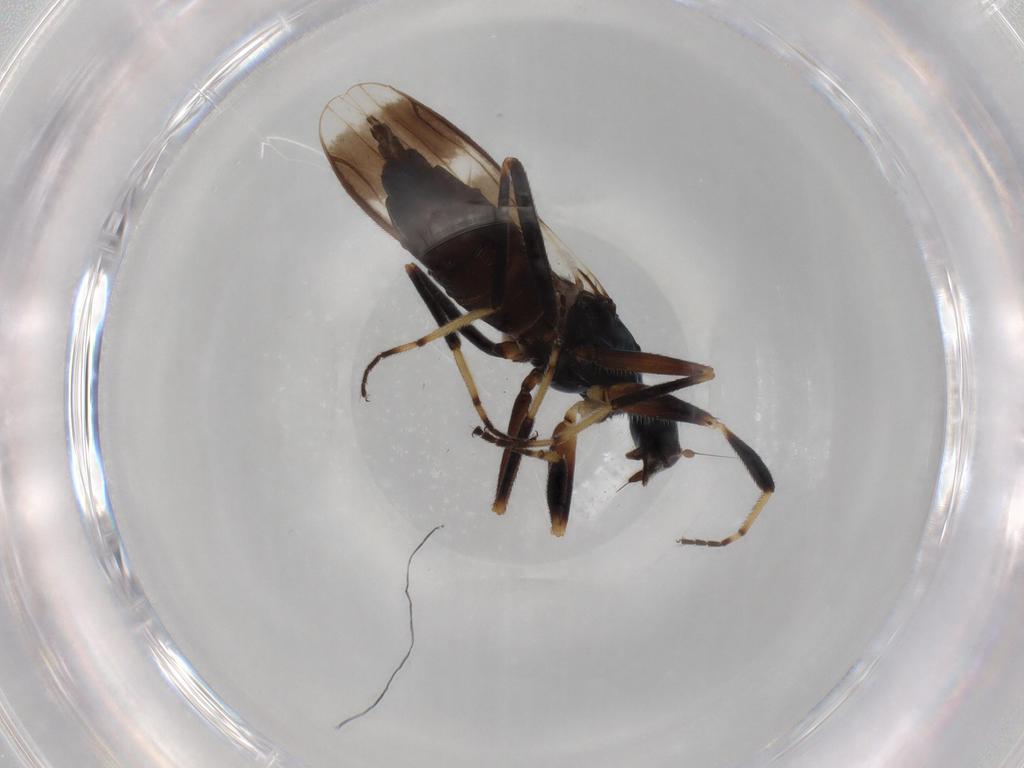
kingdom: Animalia
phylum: Arthropoda
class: Insecta
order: Diptera
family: Hybotidae
